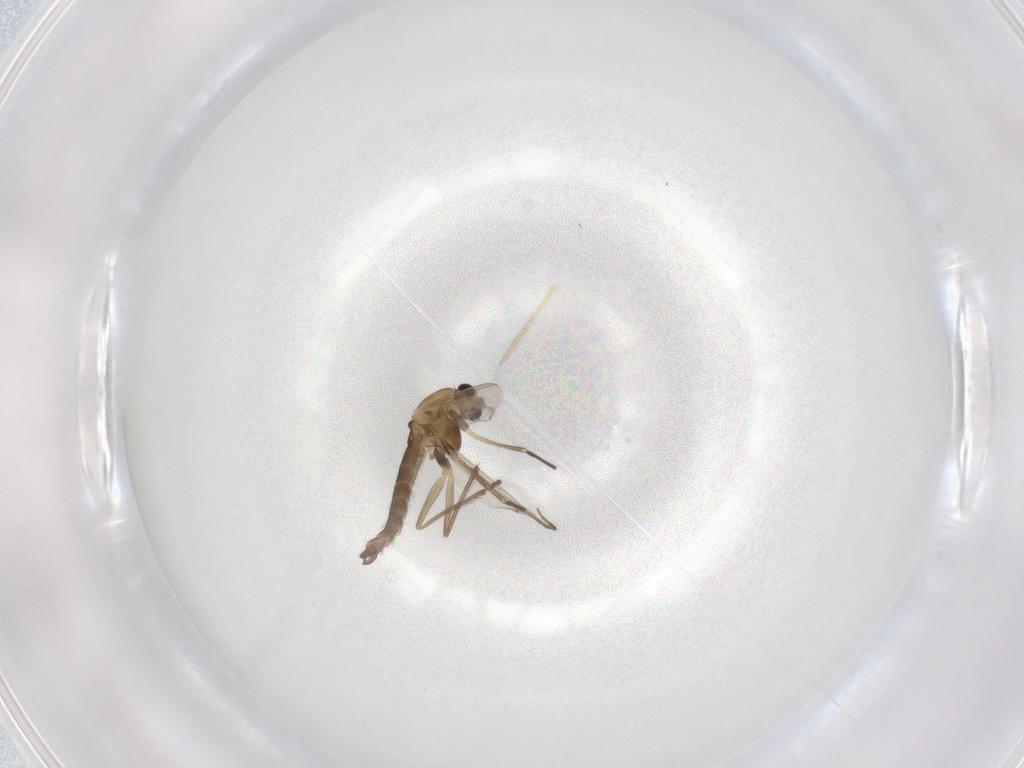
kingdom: Animalia
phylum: Arthropoda
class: Insecta
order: Diptera
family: Chironomidae
